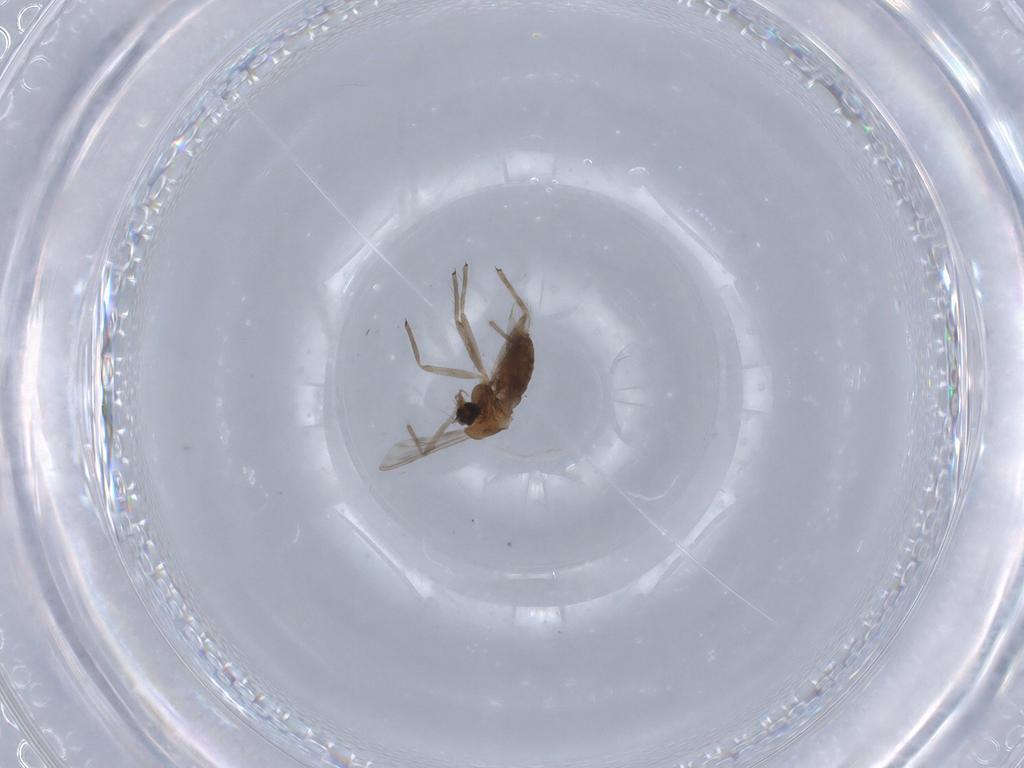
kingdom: Animalia
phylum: Arthropoda
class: Insecta
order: Diptera
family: Chironomidae
